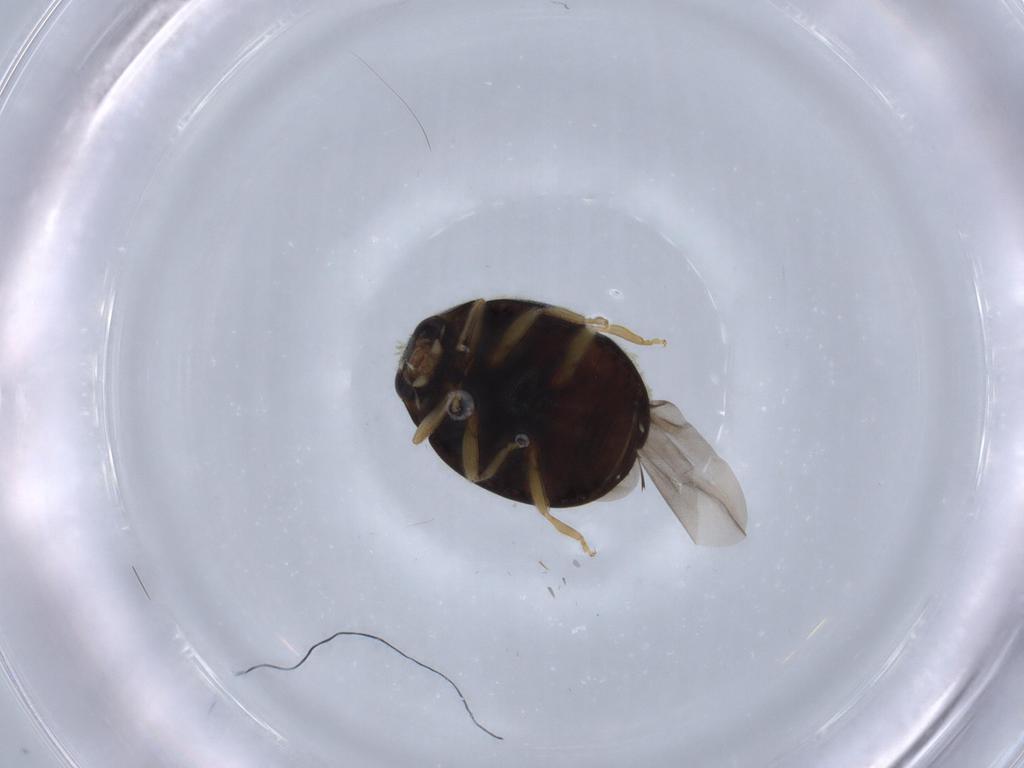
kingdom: Animalia
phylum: Arthropoda
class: Insecta
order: Coleoptera
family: Coccinellidae
